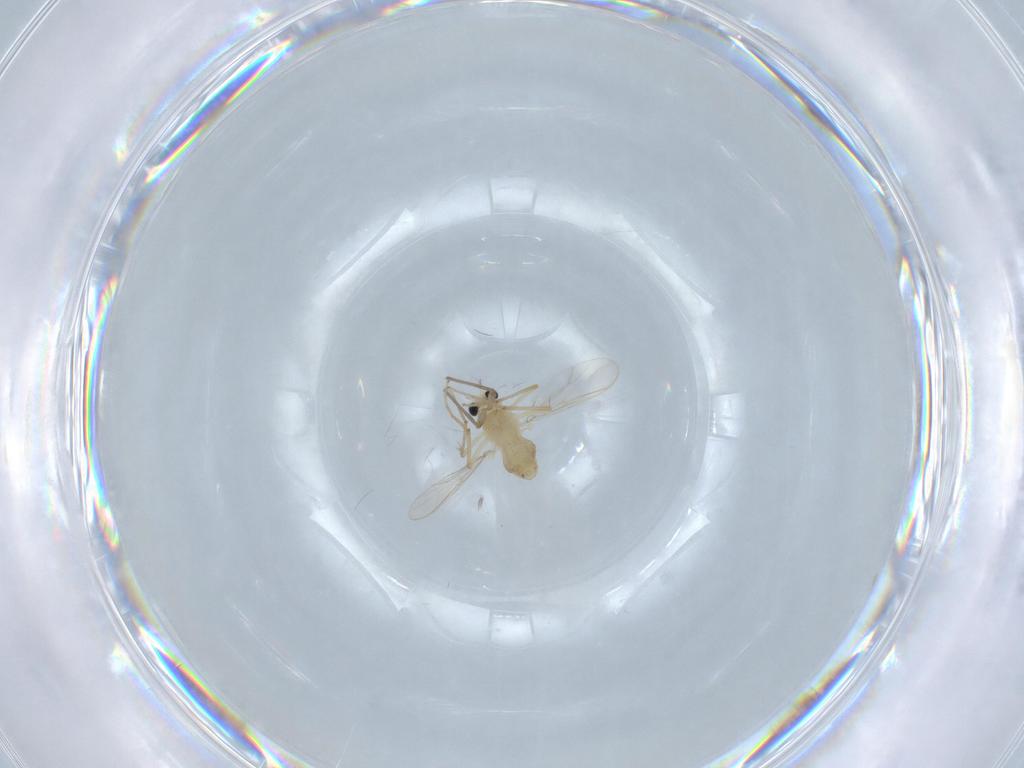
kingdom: Animalia
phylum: Arthropoda
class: Insecta
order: Diptera
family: Chironomidae
